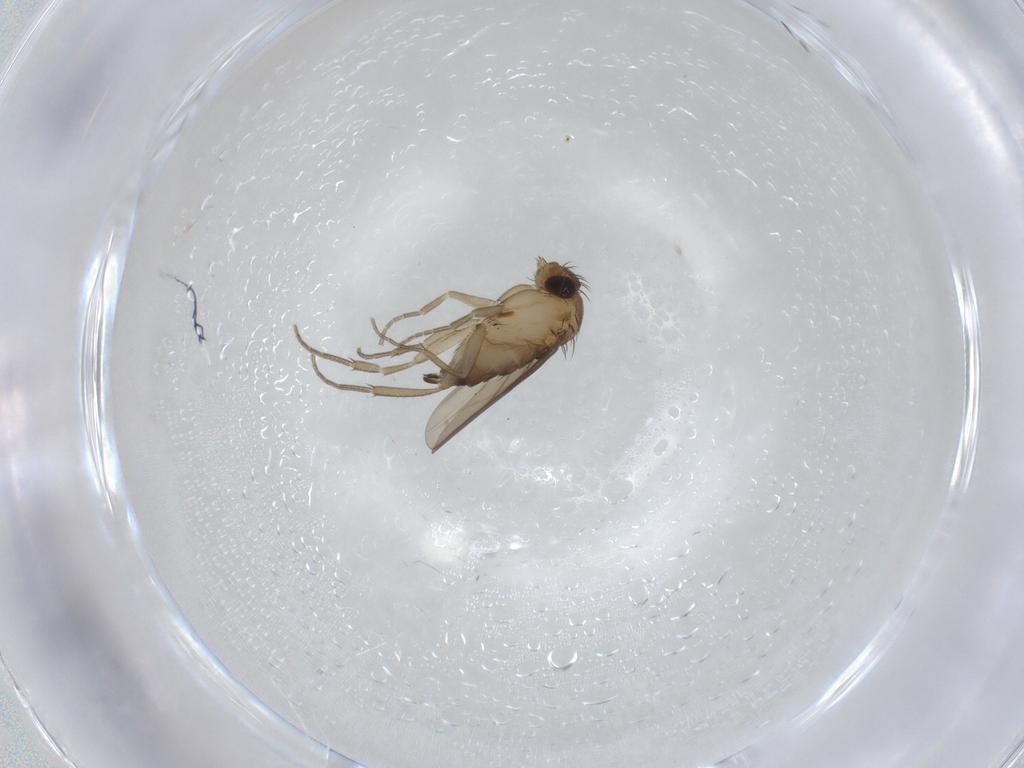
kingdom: Animalia
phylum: Arthropoda
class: Insecta
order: Diptera
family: Phoridae
